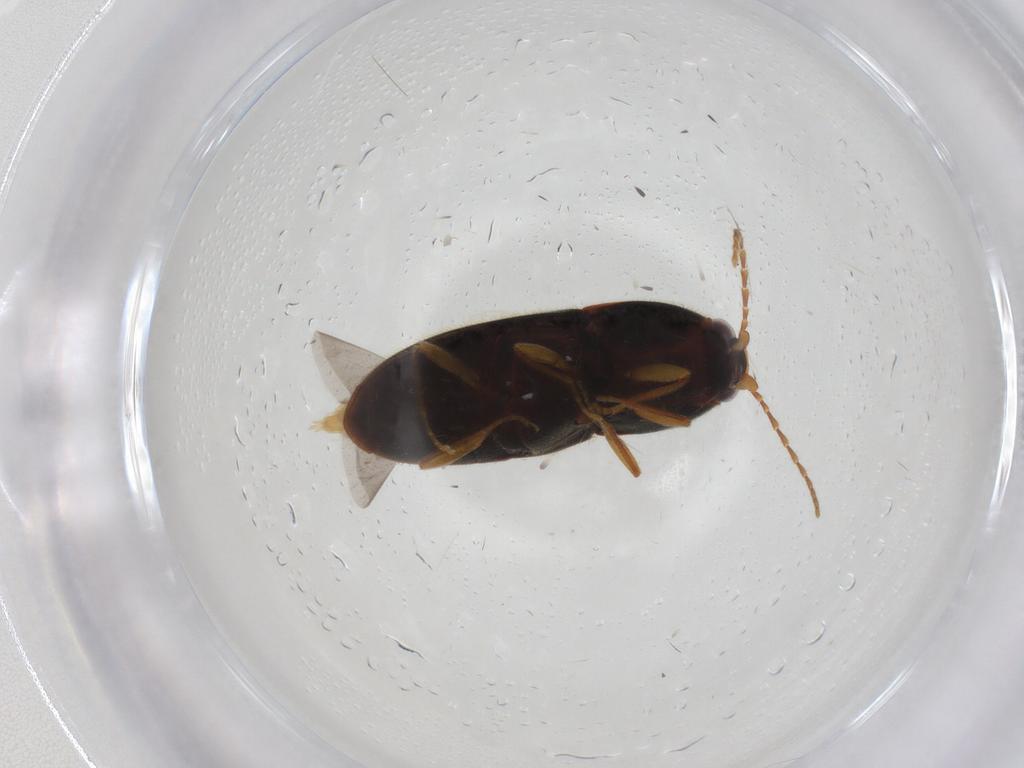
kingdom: Animalia
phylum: Arthropoda
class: Insecta
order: Coleoptera
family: Elateridae
